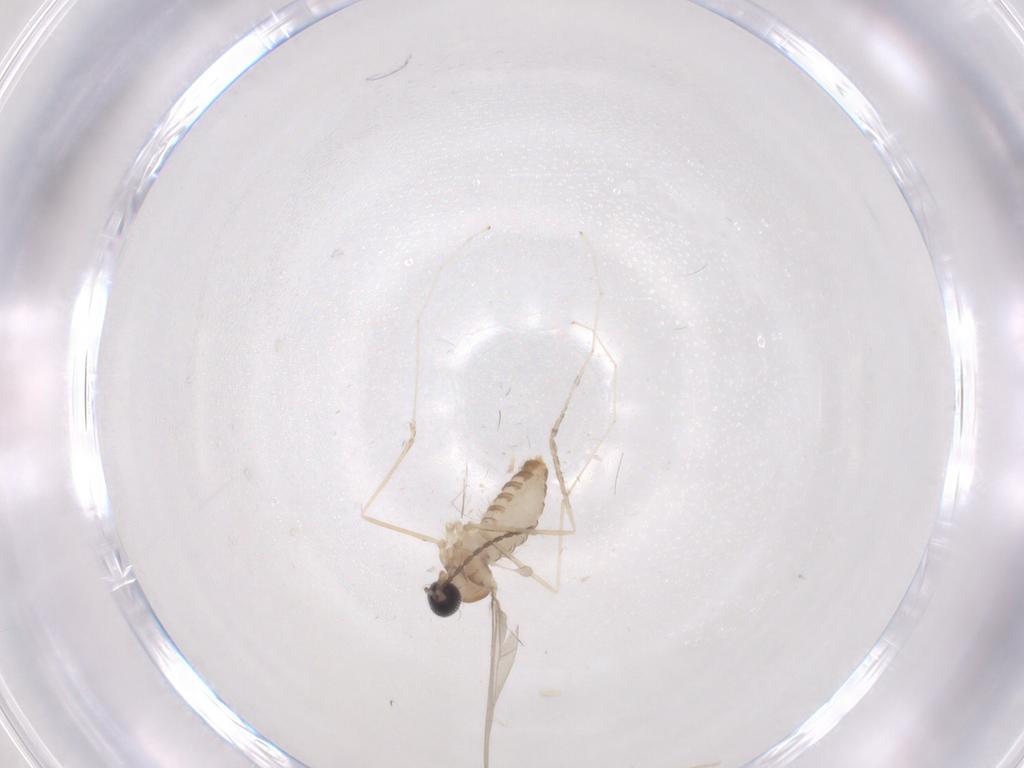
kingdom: Animalia
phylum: Arthropoda
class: Insecta
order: Diptera
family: Cecidomyiidae
